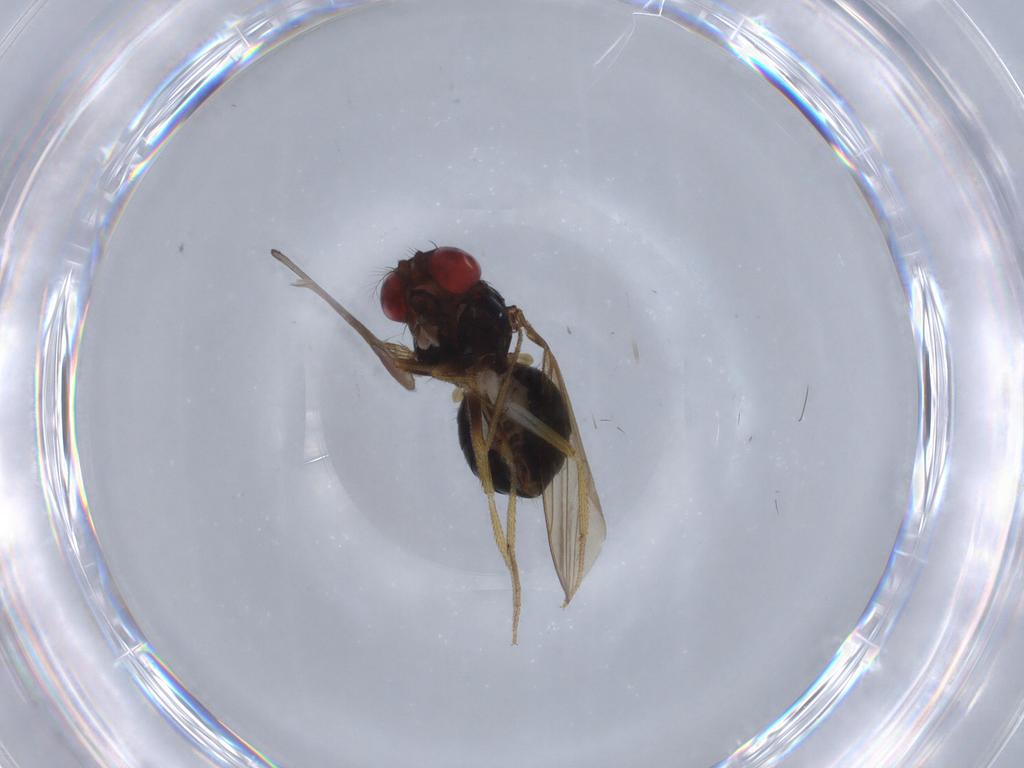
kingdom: Animalia
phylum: Arthropoda
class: Insecta
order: Diptera
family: Drosophilidae
